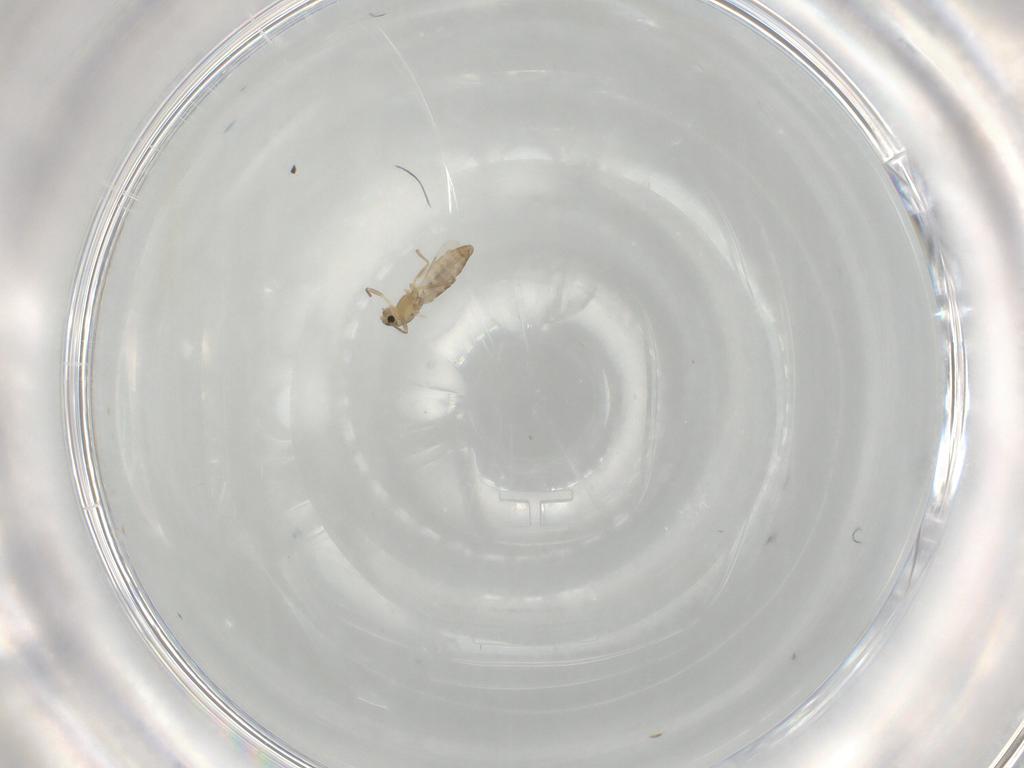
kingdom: Animalia
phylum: Arthropoda
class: Insecta
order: Diptera
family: Chironomidae
